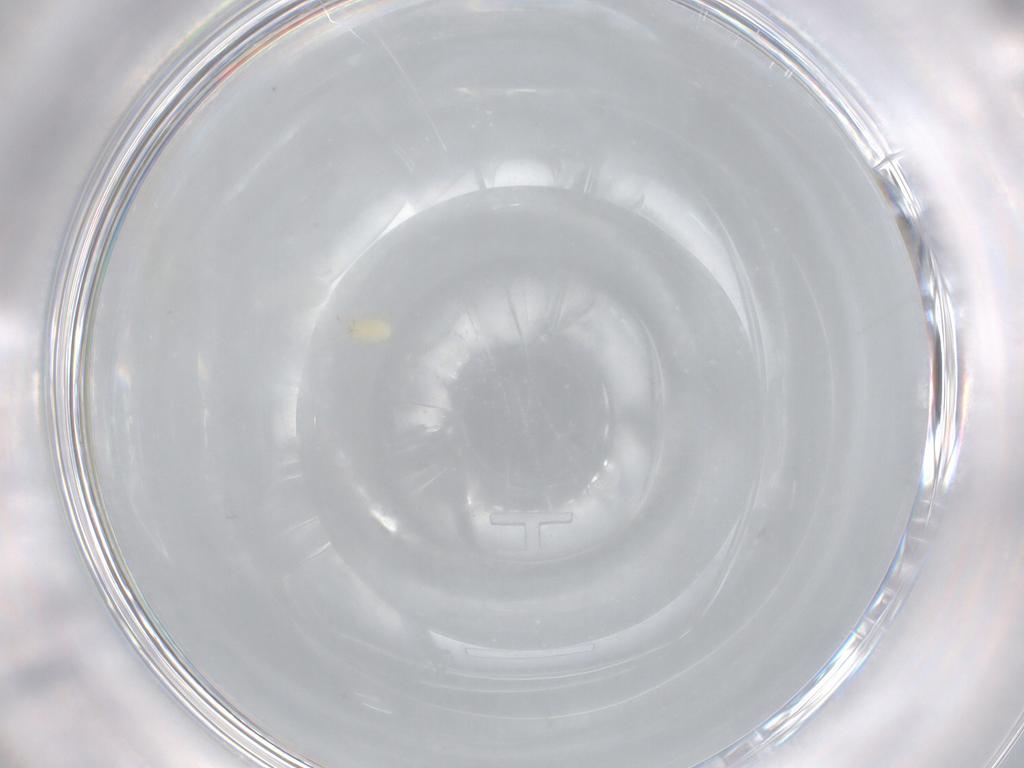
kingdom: Animalia
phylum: Arthropoda
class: Arachnida
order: Mesostigmata
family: Phytoseiidae
